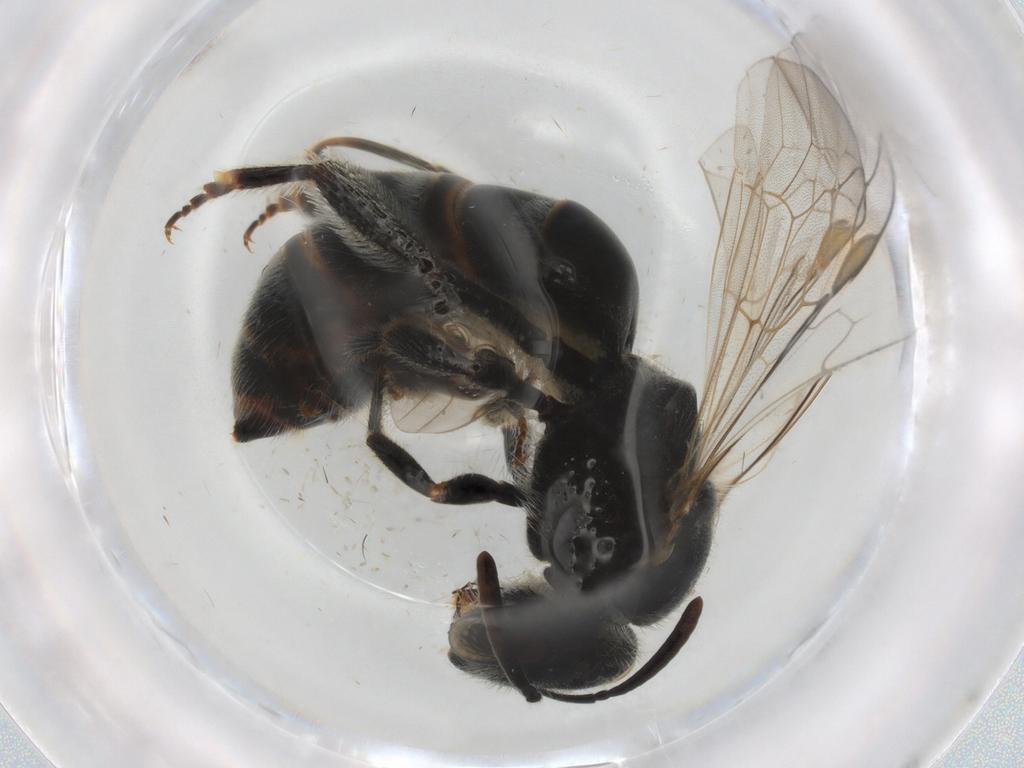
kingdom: Animalia
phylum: Arthropoda
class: Insecta
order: Hymenoptera
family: Halictidae
